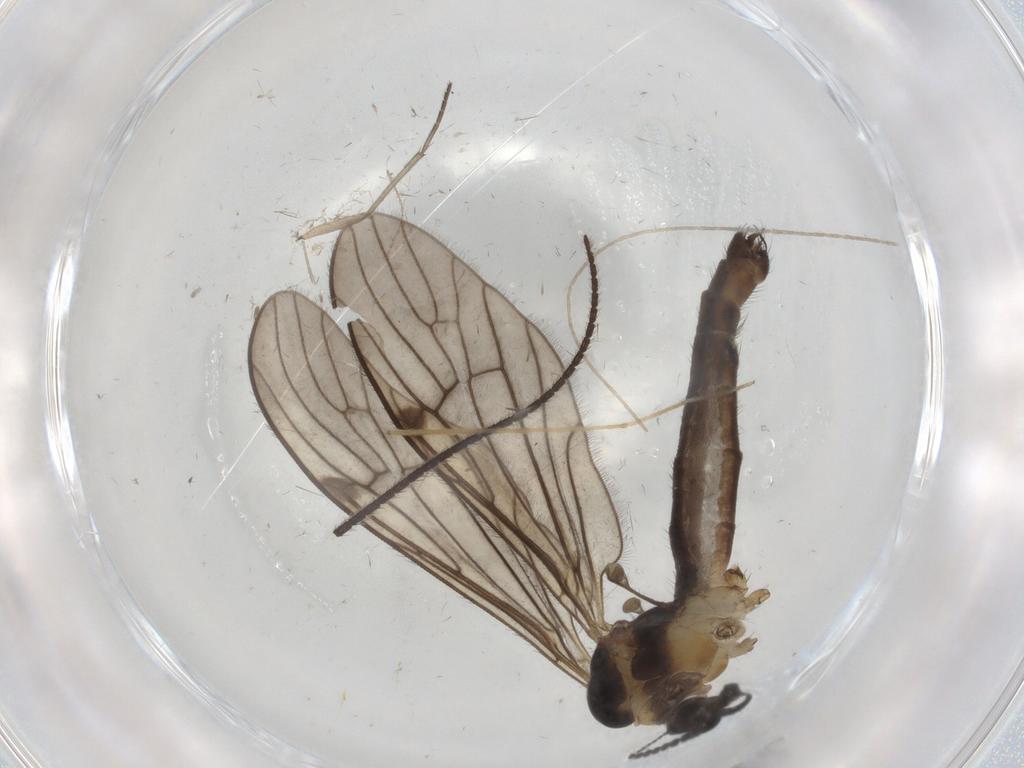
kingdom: Animalia
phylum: Arthropoda
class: Insecta
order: Diptera
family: Limoniidae
